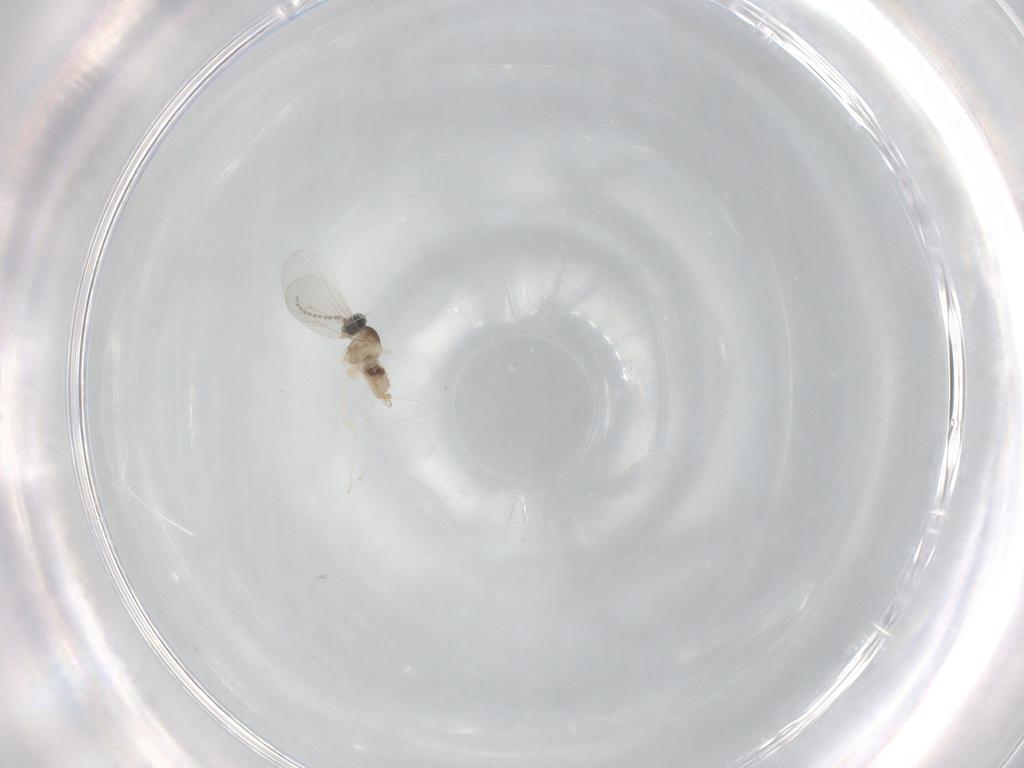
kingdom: Animalia
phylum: Arthropoda
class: Insecta
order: Diptera
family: Cecidomyiidae
